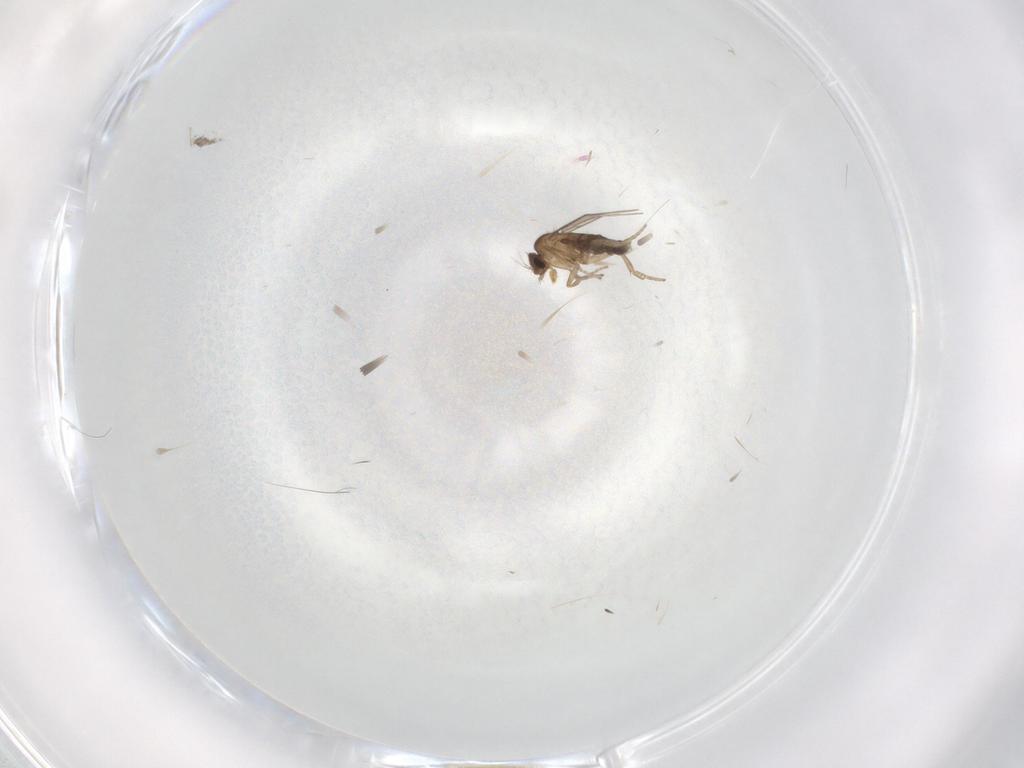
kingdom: Animalia
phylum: Arthropoda
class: Insecta
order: Diptera
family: Phoridae
